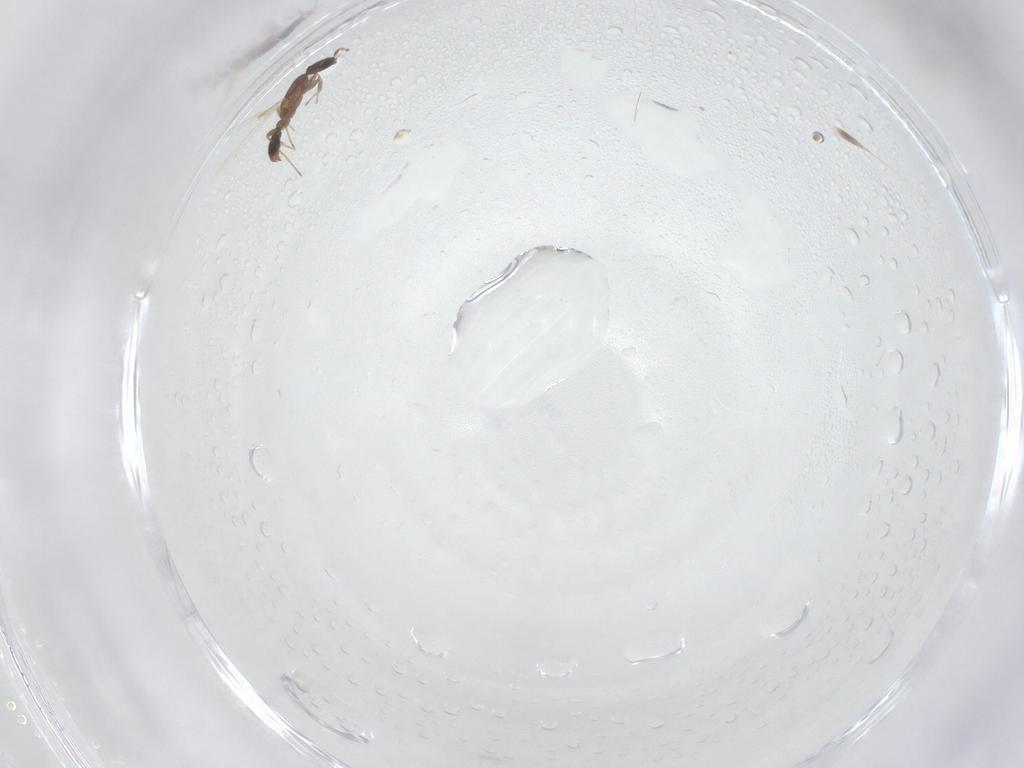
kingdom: Animalia
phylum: Arthropoda
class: Insecta
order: Hymenoptera
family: Formicidae
